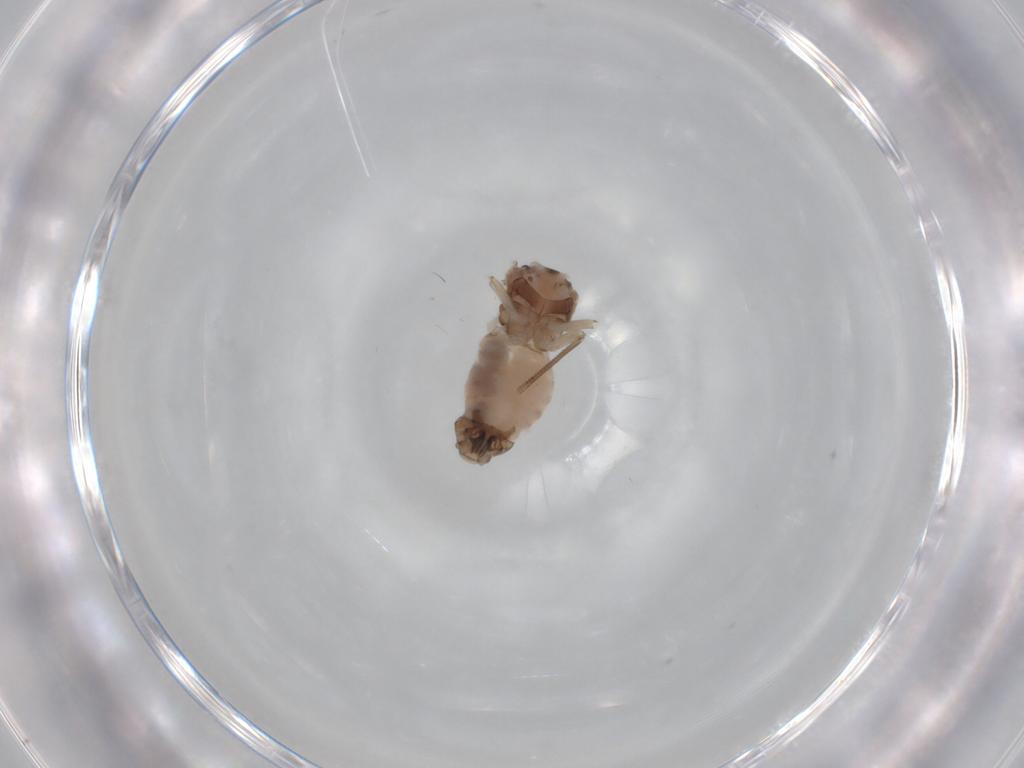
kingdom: Animalia
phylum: Arthropoda
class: Insecta
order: Psocodea
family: Peripsocidae
